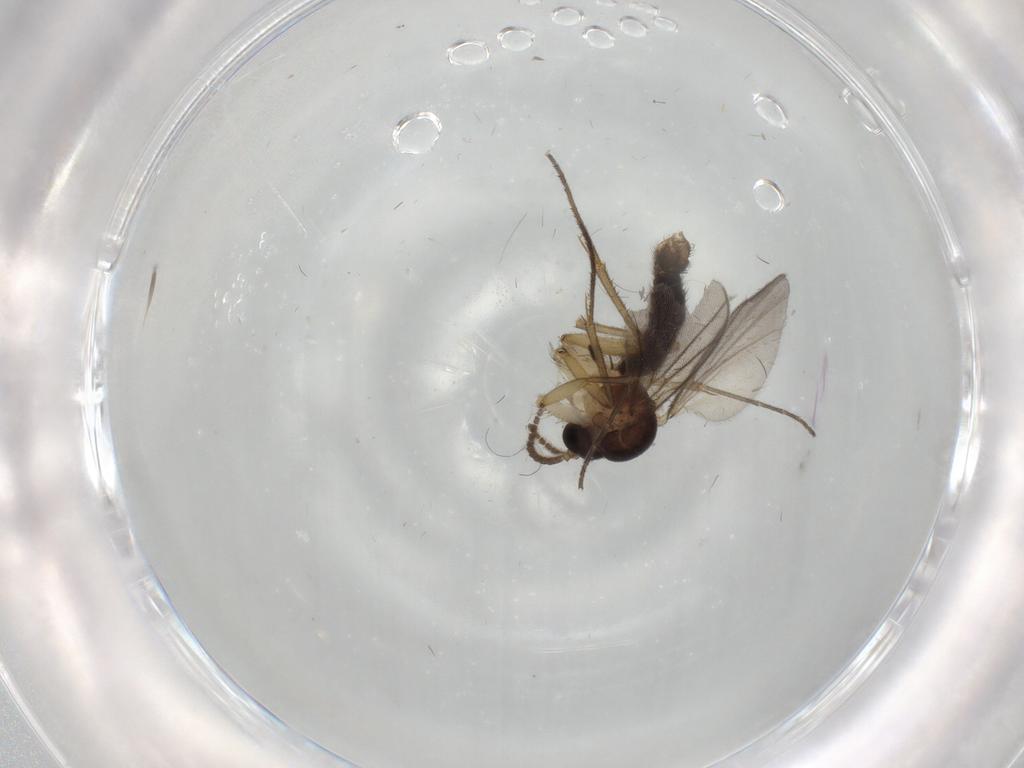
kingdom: Animalia
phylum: Arthropoda
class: Insecta
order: Diptera
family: Mycetophilidae
